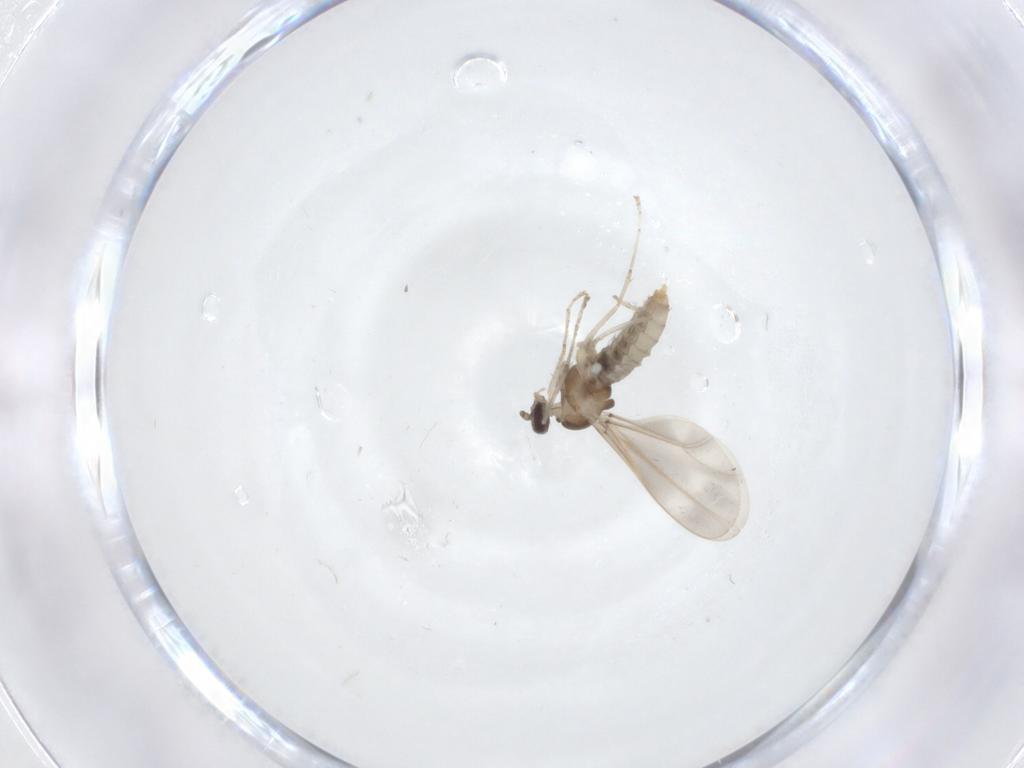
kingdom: Animalia
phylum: Arthropoda
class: Insecta
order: Diptera
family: Cecidomyiidae
